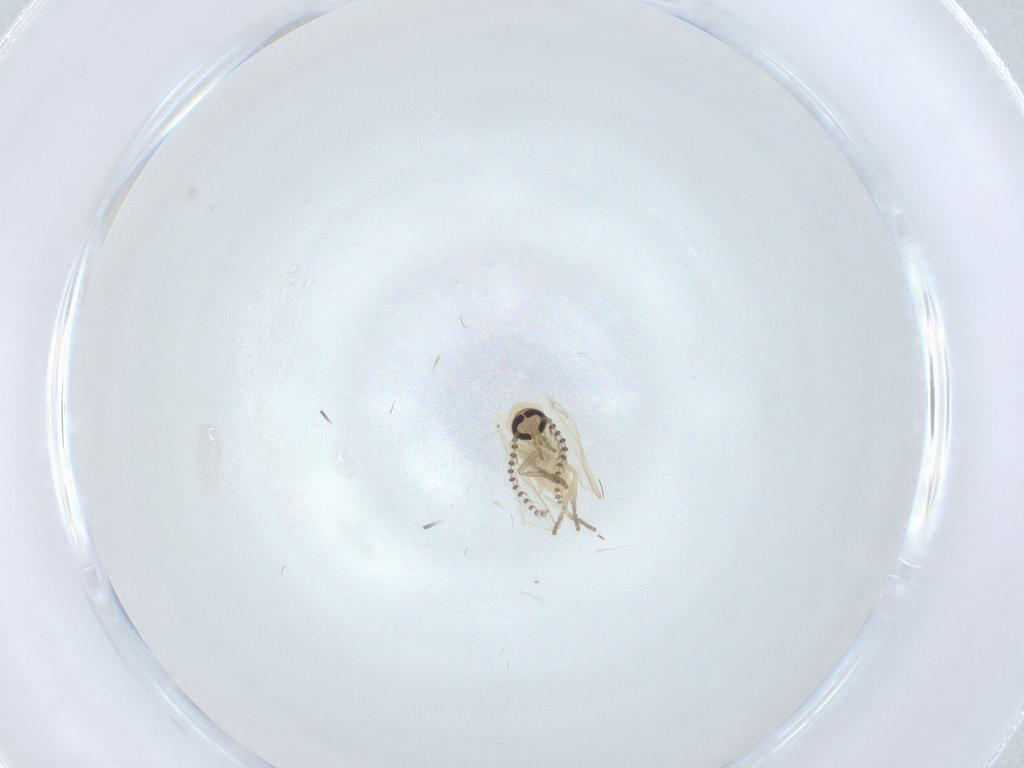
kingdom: Animalia
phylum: Arthropoda
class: Insecta
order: Diptera
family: Psychodidae
